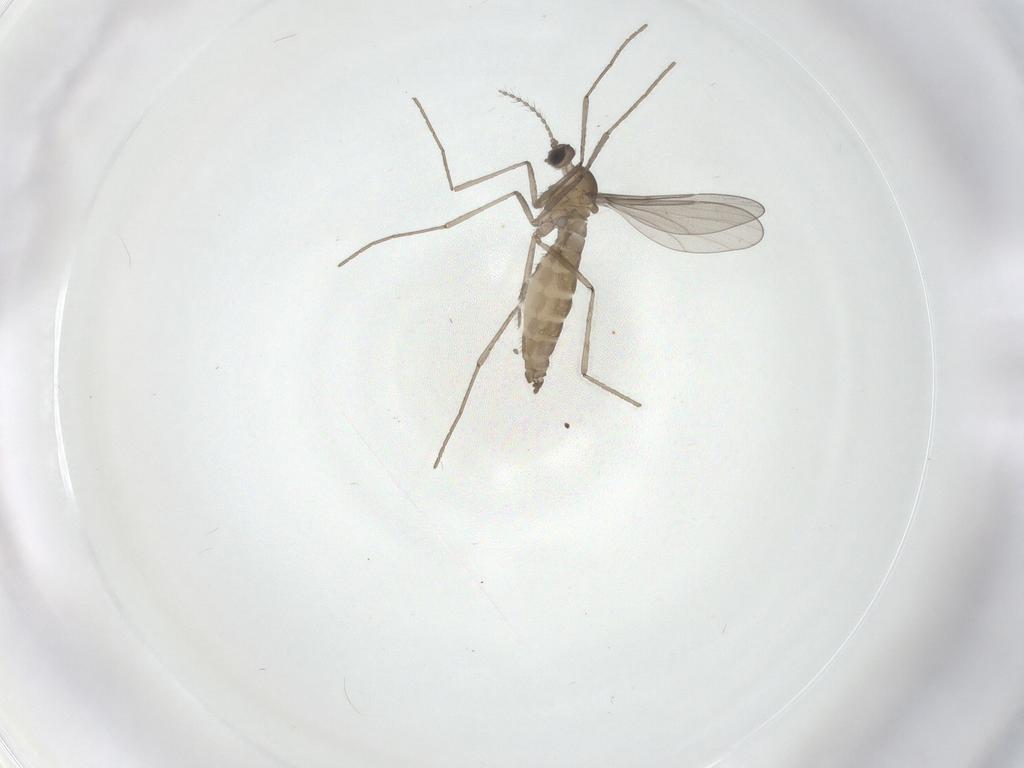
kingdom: Animalia
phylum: Arthropoda
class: Insecta
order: Diptera
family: Cecidomyiidae
